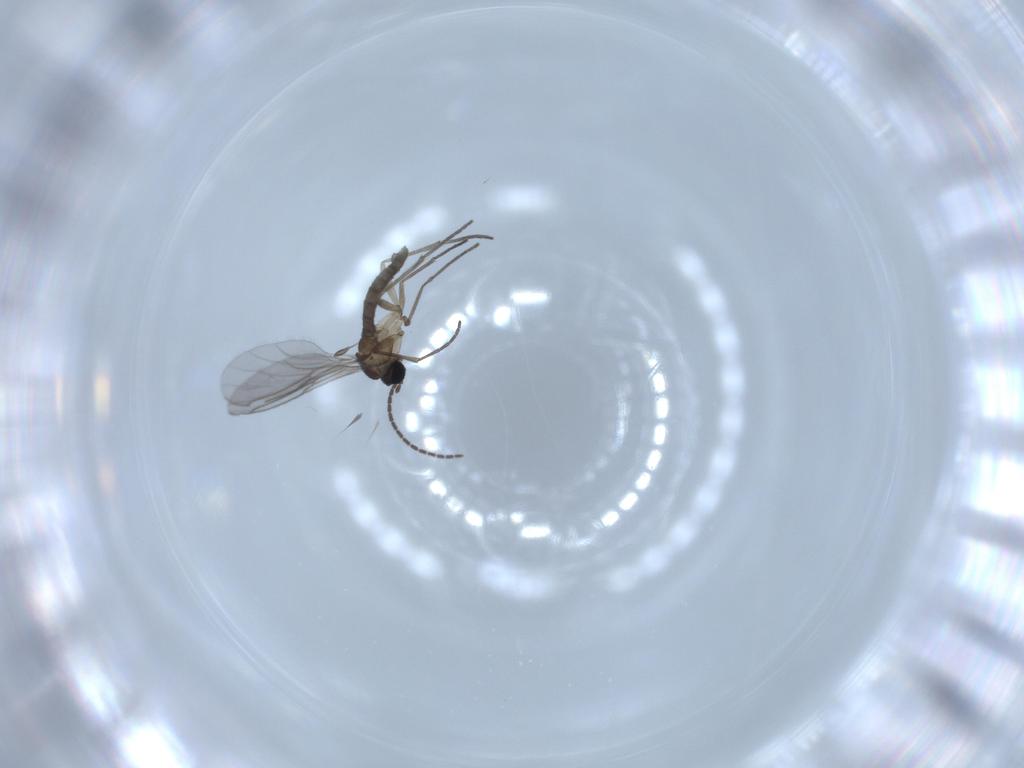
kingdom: Animalia
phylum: Arthropoda
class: Insecta
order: Diptera
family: Sciaridae
